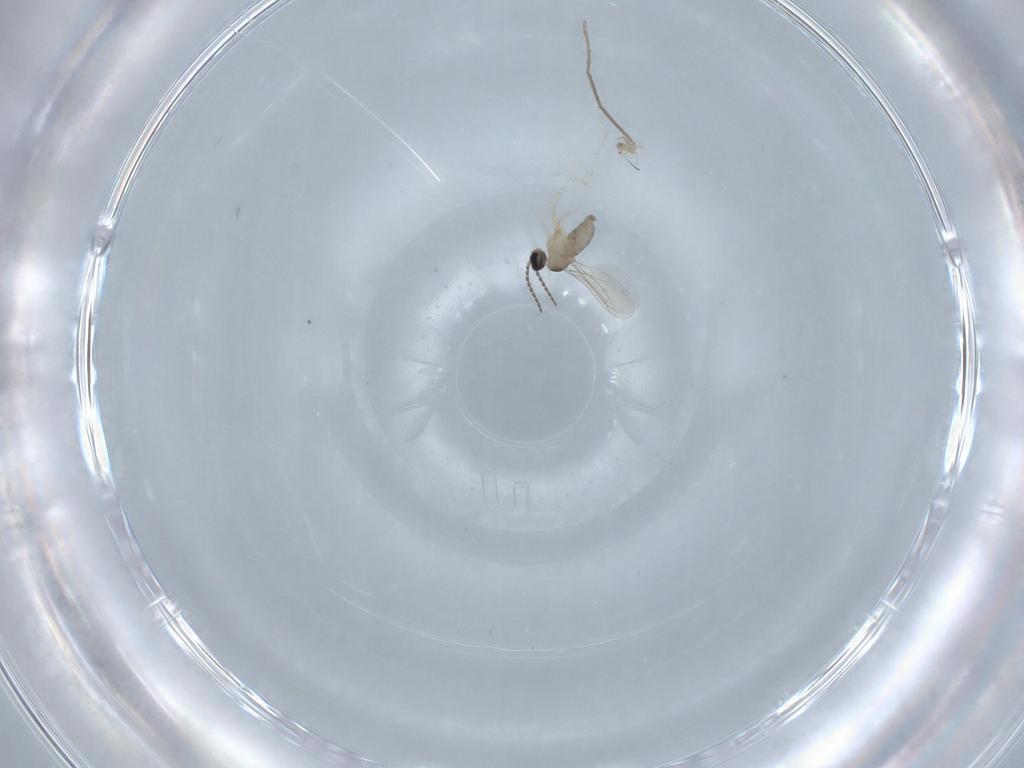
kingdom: Animalia
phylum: Arthropoda
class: Insecta
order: Diptera
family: Cecidomyiidae
